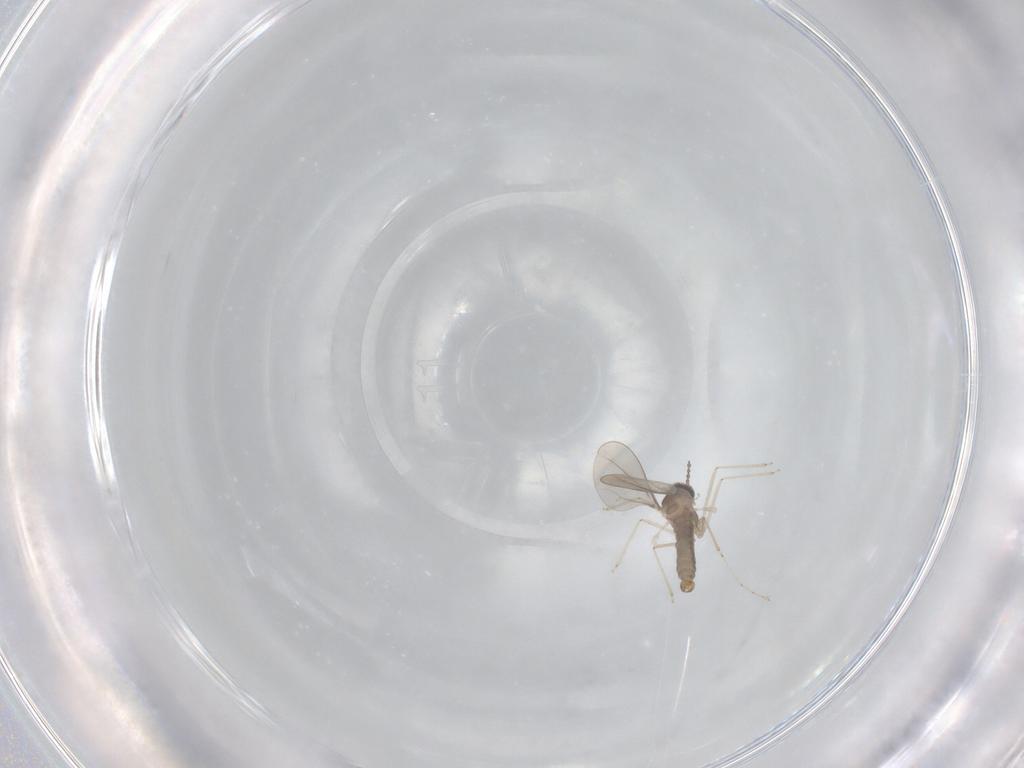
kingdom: Animalia
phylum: Arthropoda
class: Insecta
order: Diptera
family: Cecidomyiidae
